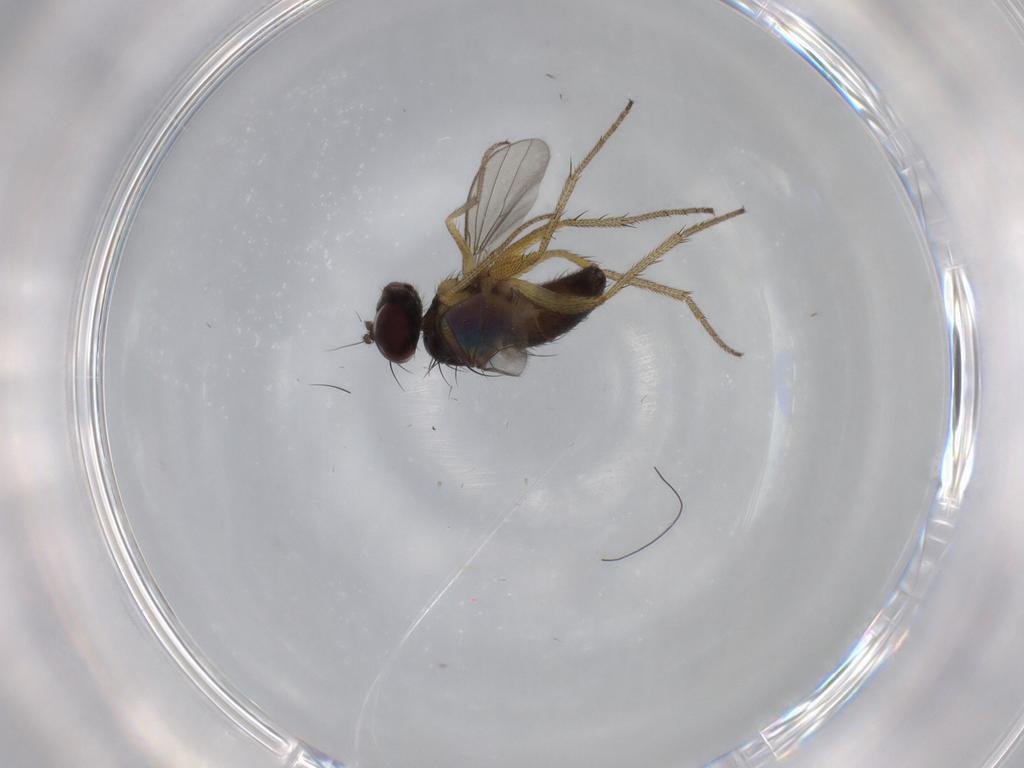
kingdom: Animalia
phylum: Arthropoda
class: Insecta
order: Diptera
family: Dolichopodidae
